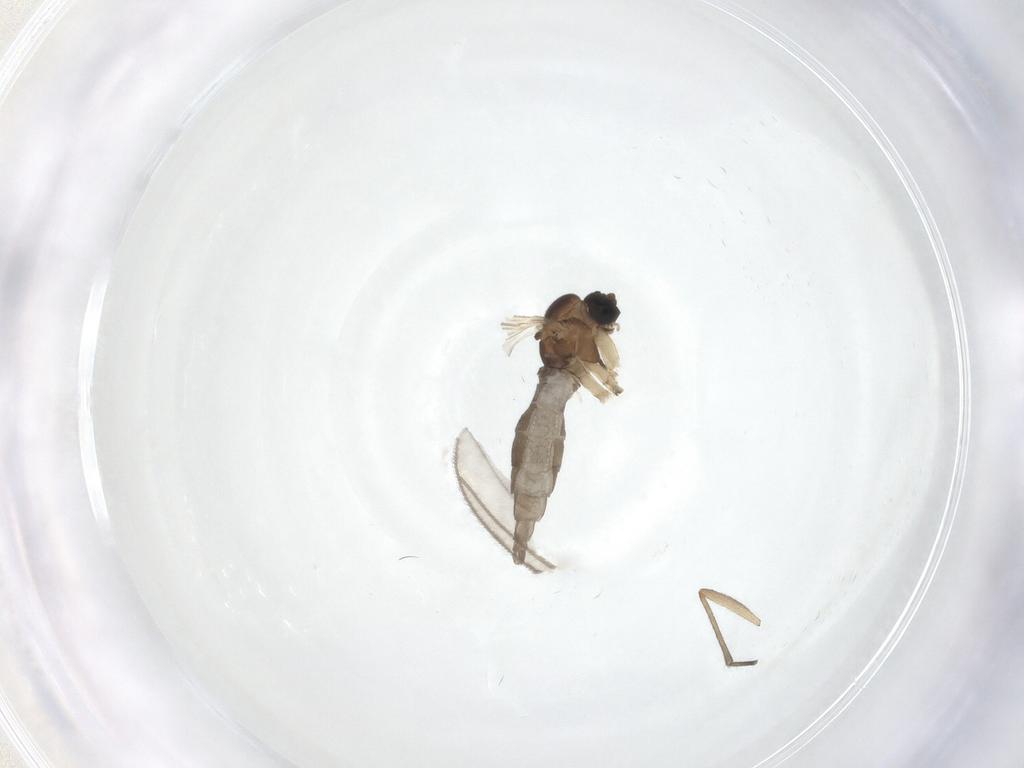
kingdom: Animalia
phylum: Arthropoda
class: Insecta
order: Diptera
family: Sciaridae
